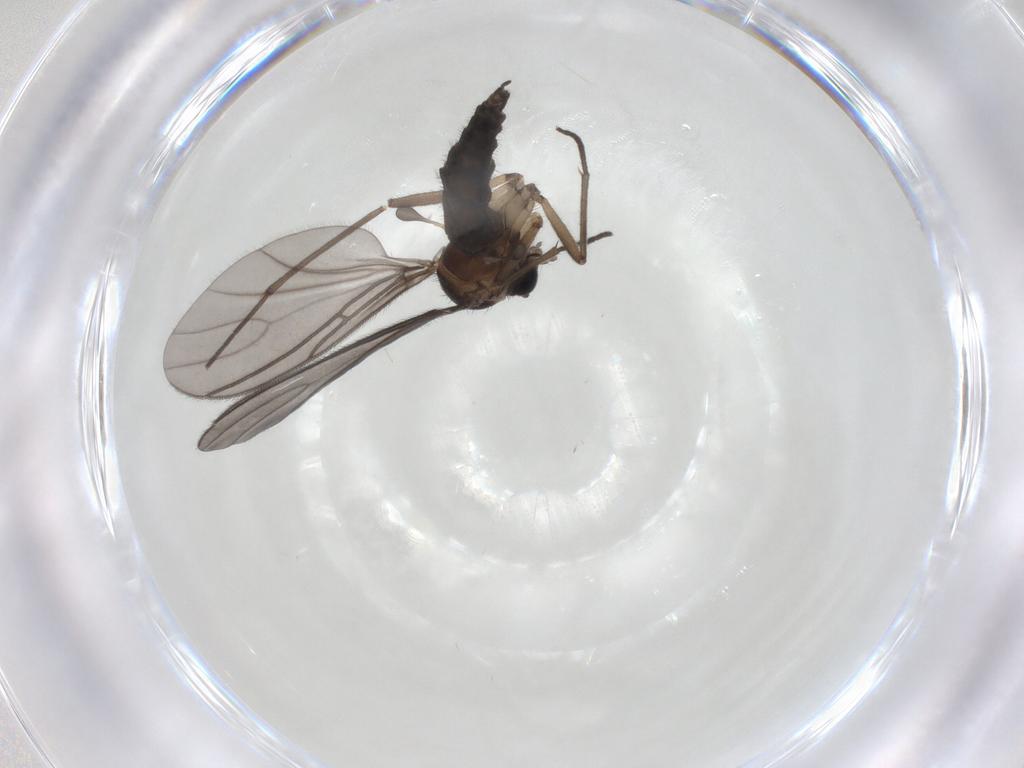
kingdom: Animalia
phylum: Arthropoda
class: Insecta
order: Diptera
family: Sciaridae
